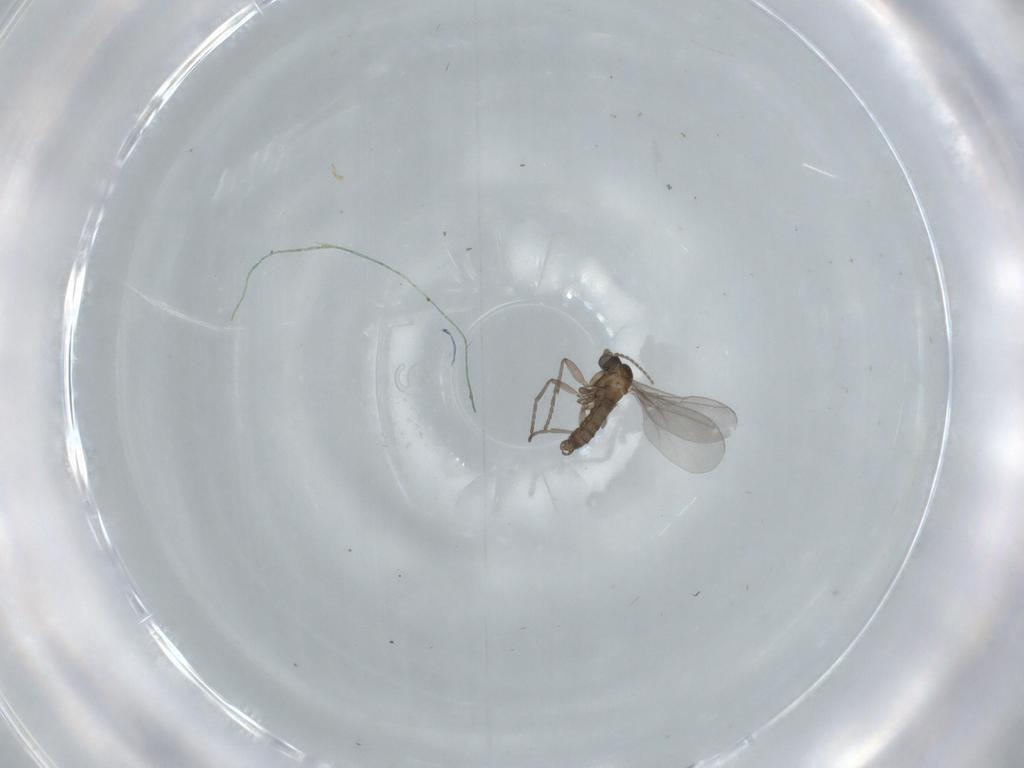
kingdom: Animalia
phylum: Arthropoda
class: Insecta
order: Diptera
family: Sciaridae
